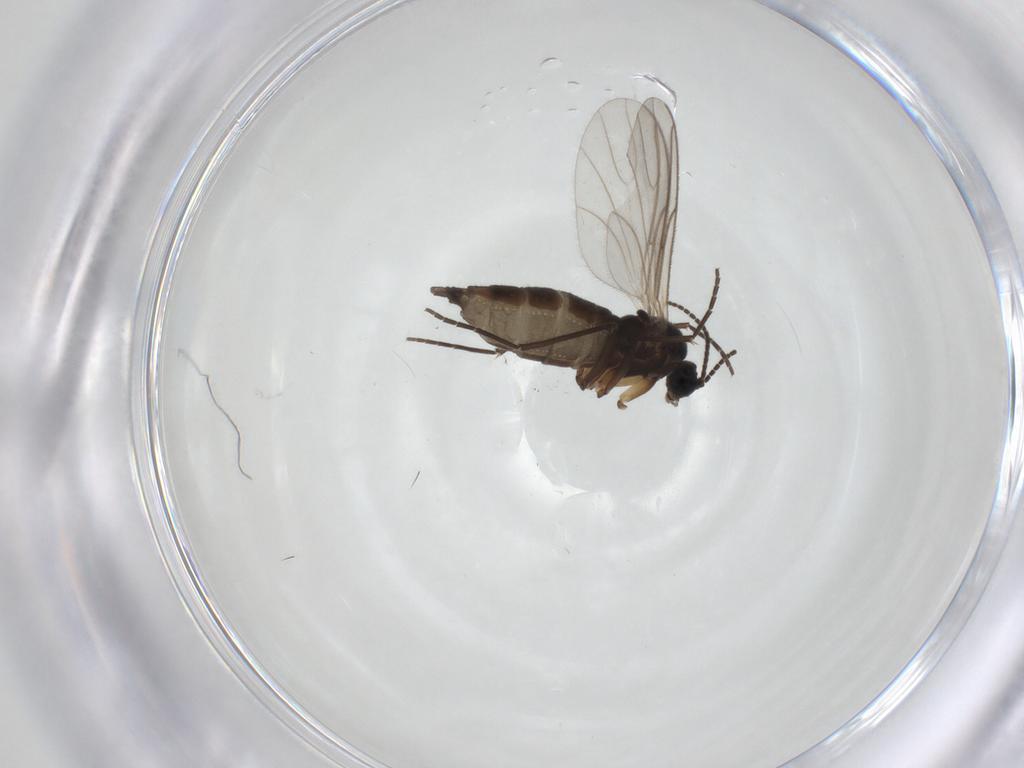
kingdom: Animalia
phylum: Arthropoda
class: Insecta
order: Diptera
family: Sciaridae
